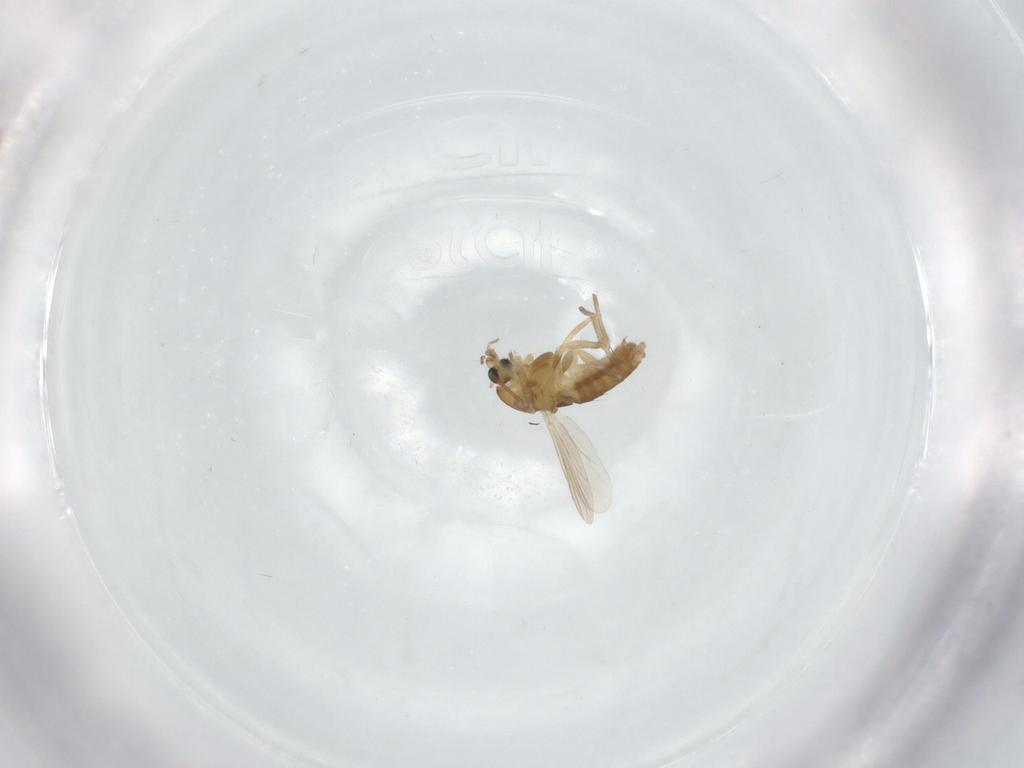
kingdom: Animalia
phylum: Arthropoda
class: Insecta
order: Diptera
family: Chironomidae
